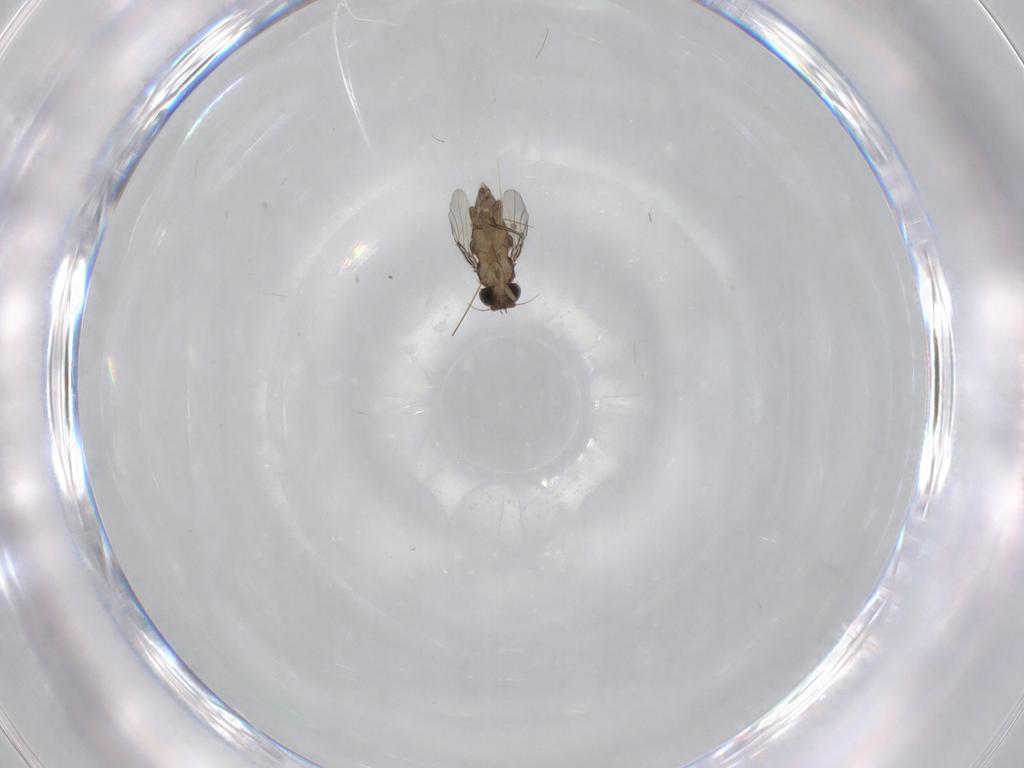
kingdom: Animalia
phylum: Arthropoda
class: Insecta
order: Diptera
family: Phoridae
